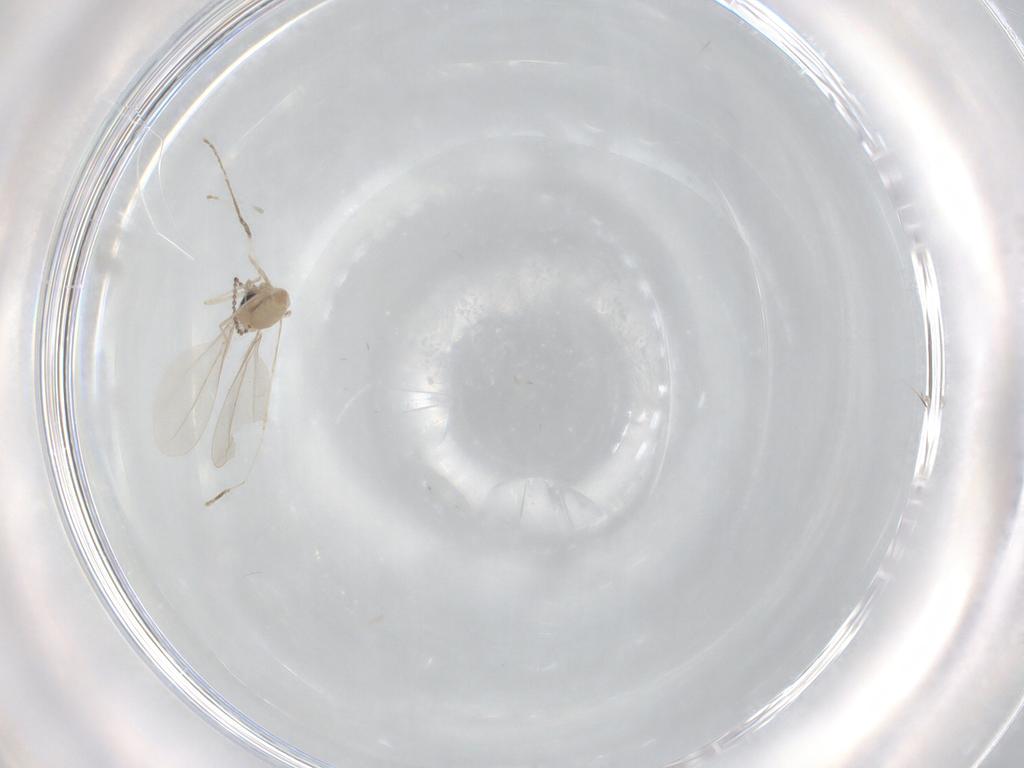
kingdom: Animalia
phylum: Arthropoda
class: Insecta
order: Diptera
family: Cecidomyiidae
